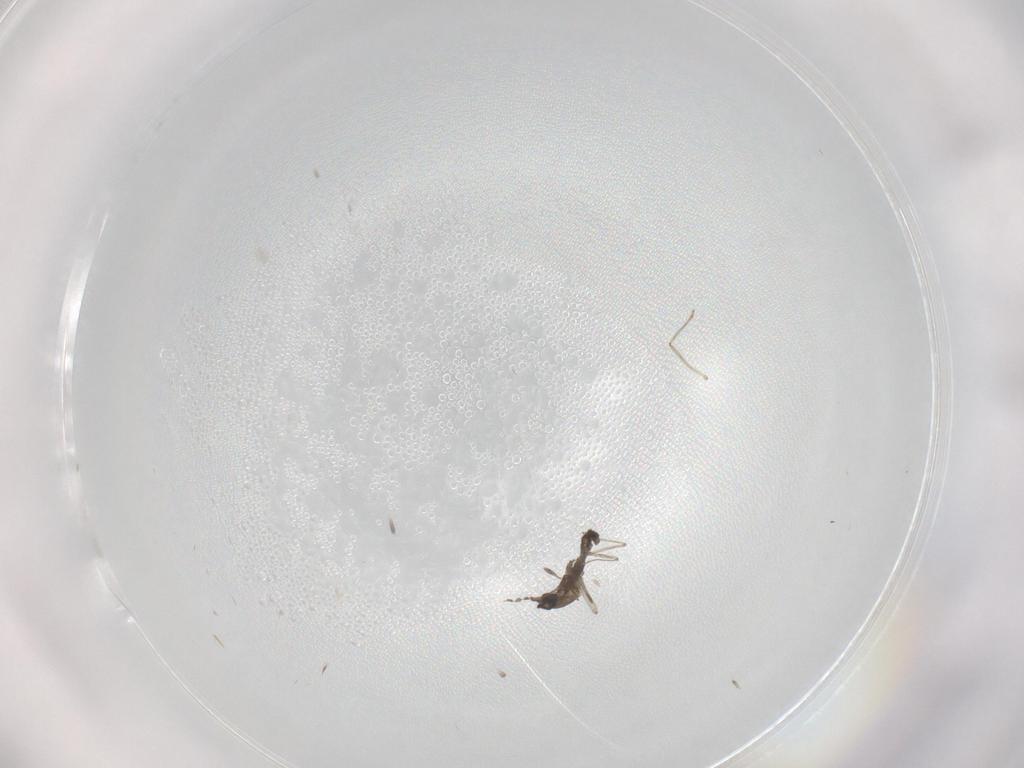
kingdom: Animalia
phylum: Arthropoda
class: Insecta
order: Diptera
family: Cecidomyiidae
